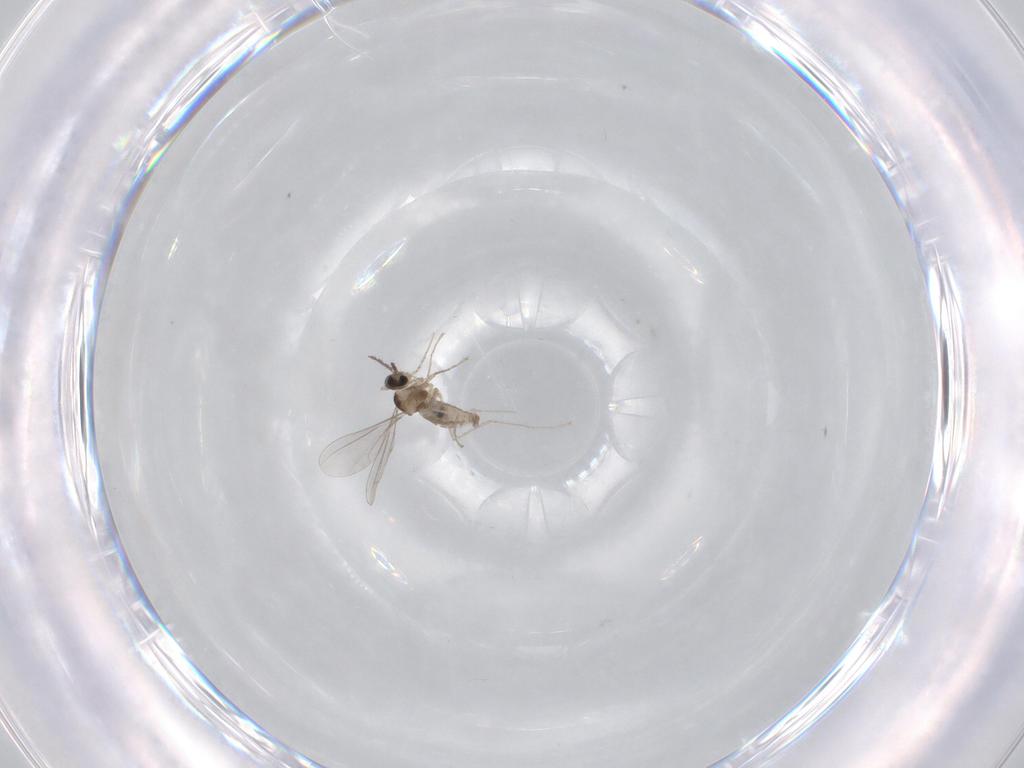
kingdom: Animalia
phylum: Arthropoda
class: Insecta
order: Diptera
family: Chironomidae
